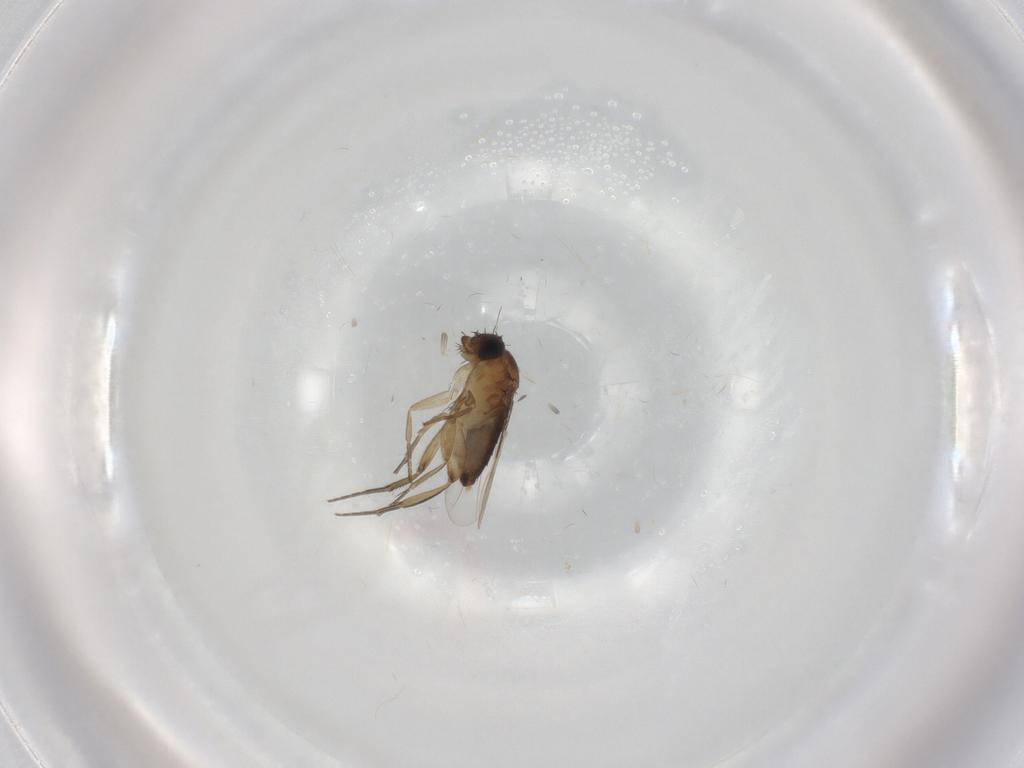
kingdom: Animalia
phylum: Arthropoda
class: Insecta
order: Diptera
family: Phoridae
